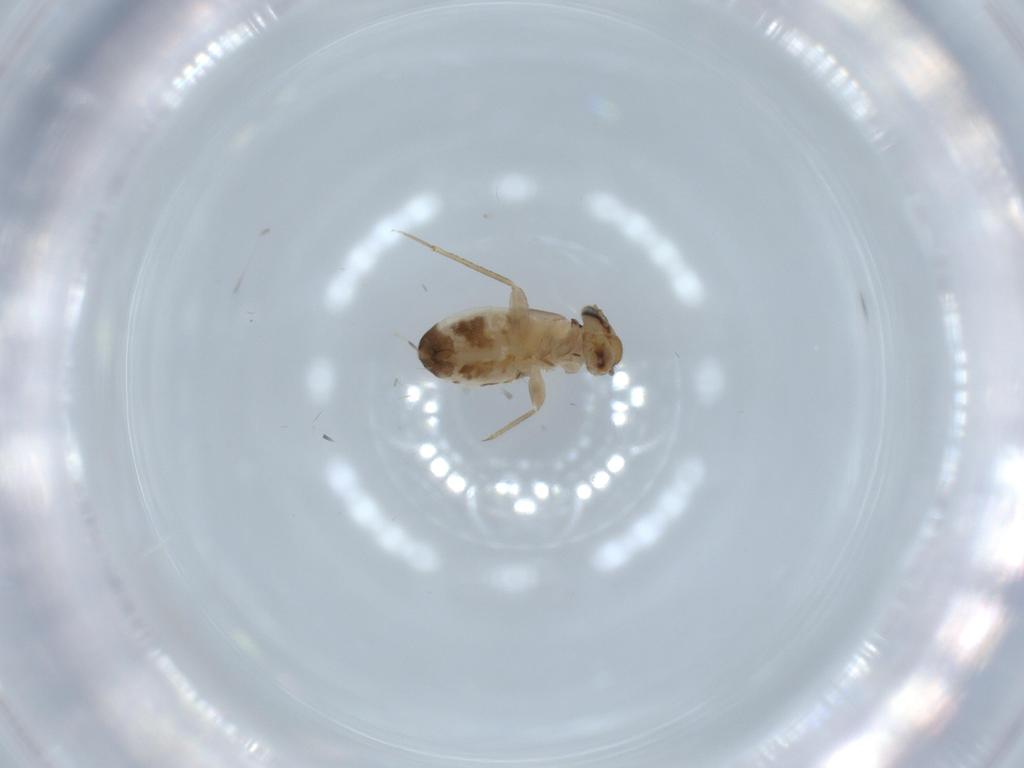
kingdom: Animalia
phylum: Arthropoda
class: Insecta
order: Psocodea
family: Lepidopsocidae
